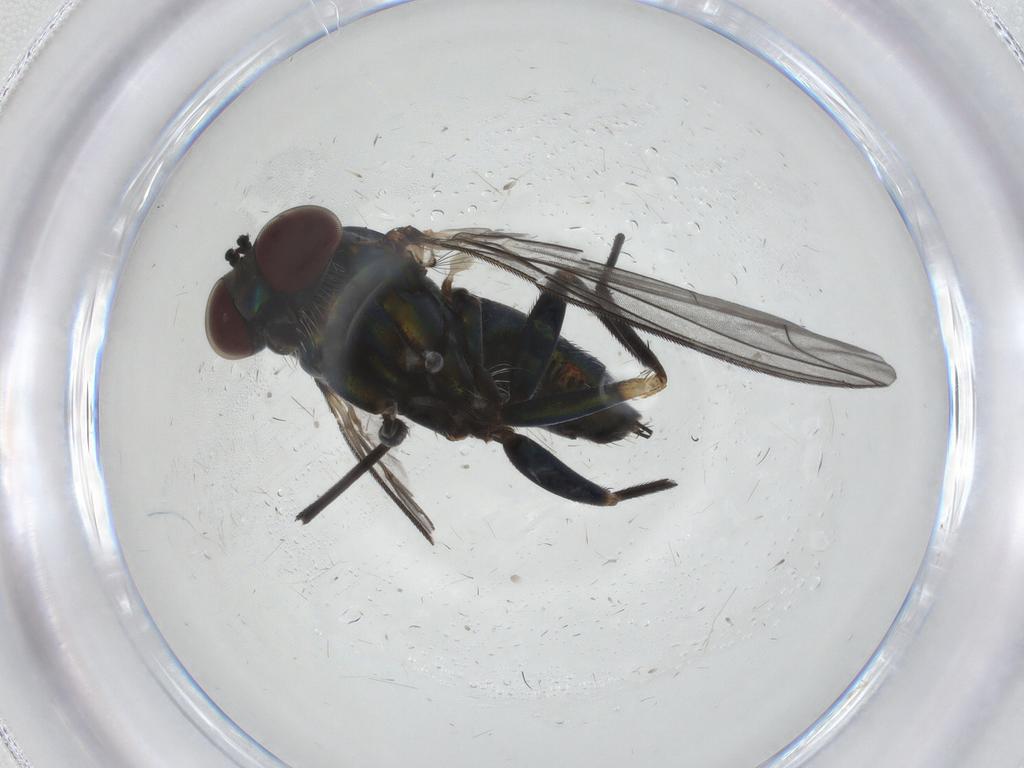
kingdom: Animalia
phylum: Arthropoda
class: Insecta
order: Diptera
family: Dolichopodidae
